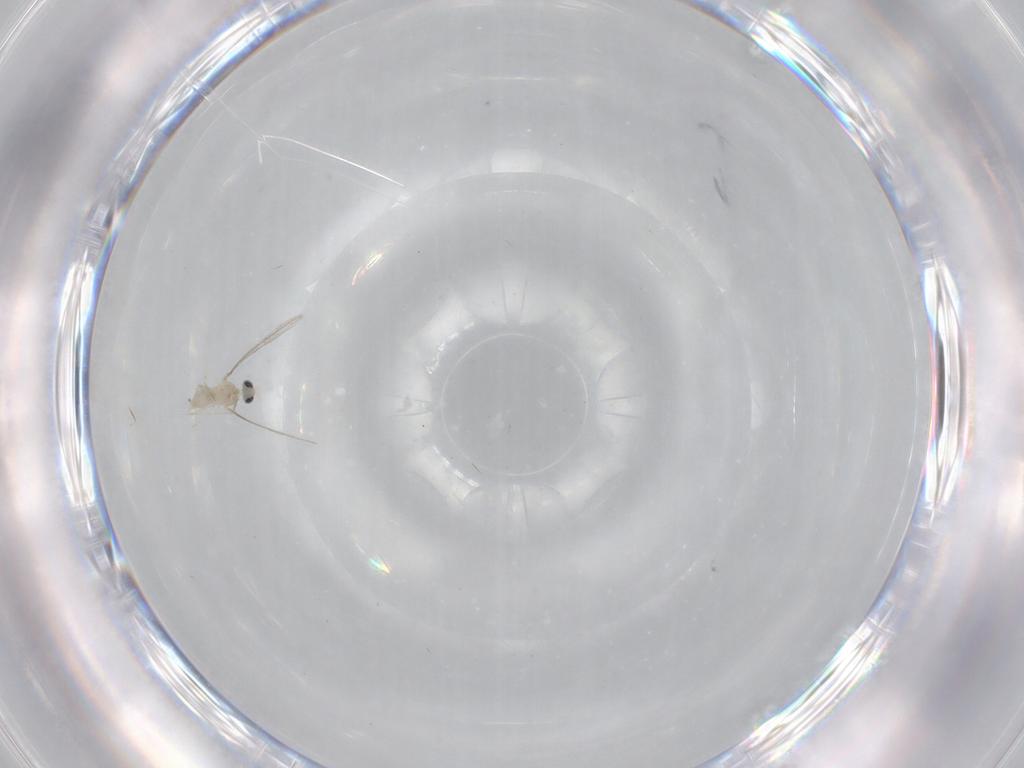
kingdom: Animalia
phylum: Arthropoda
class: Insecta
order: Diptera
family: Cecidomyiidae
